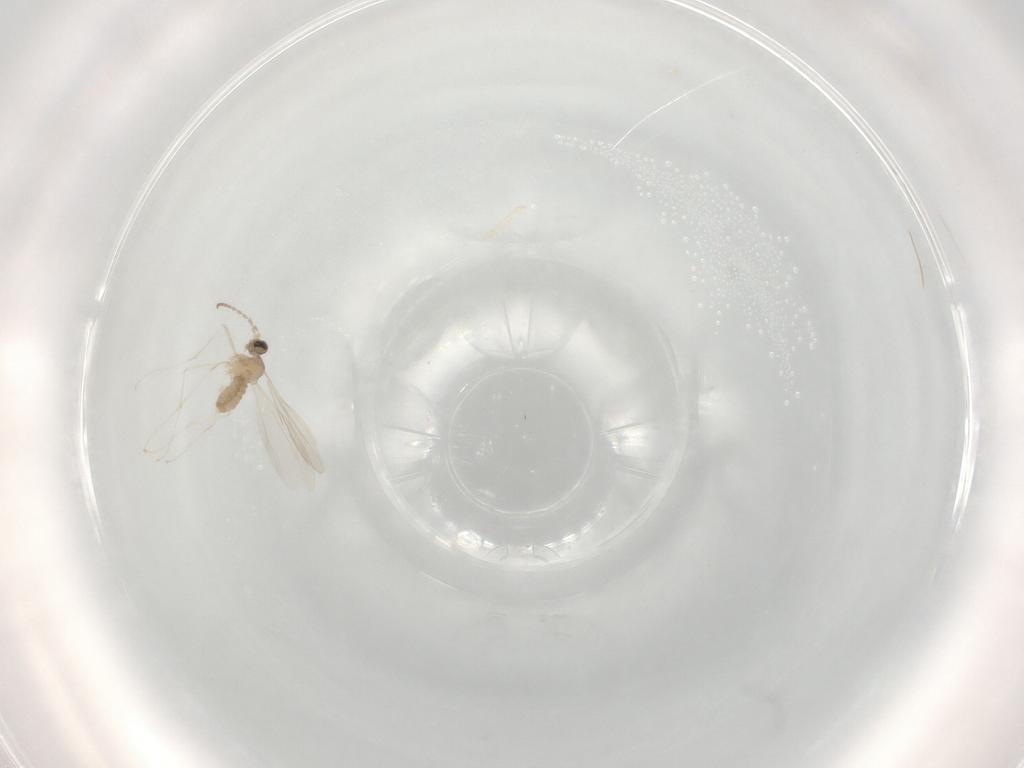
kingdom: Animalia
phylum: Arthropoda
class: Insecta
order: Diptera
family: Cecidomyiidae
